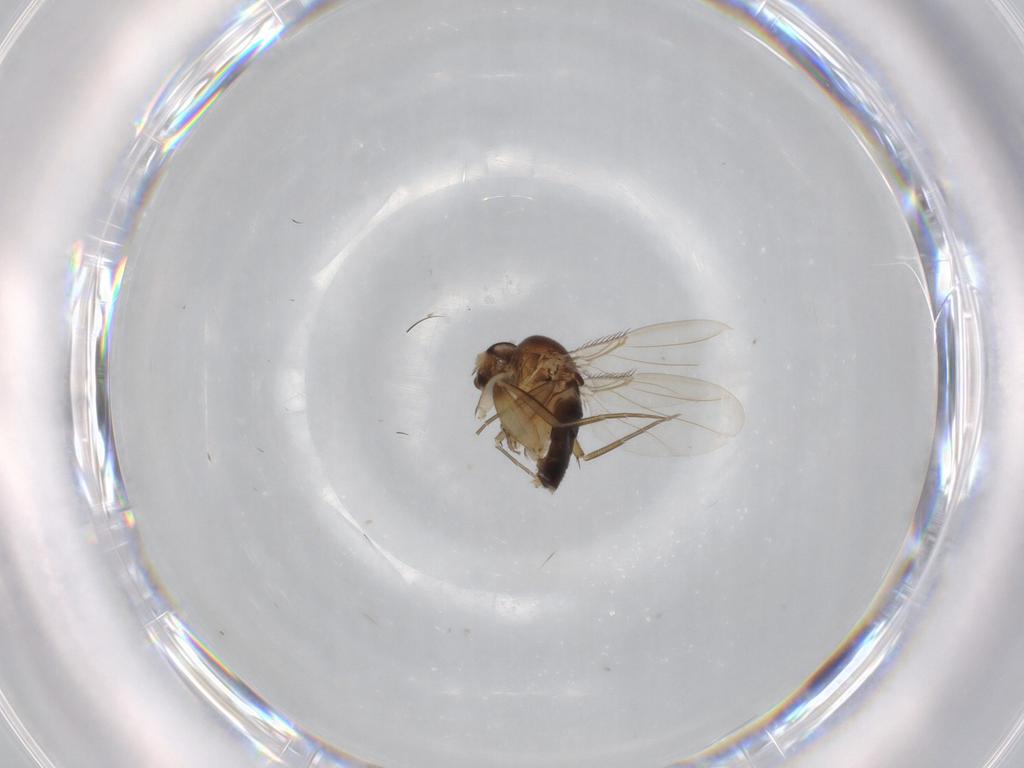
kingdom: Animalia
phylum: Arthropoda
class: Insecta
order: Diptera
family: Phoridae
